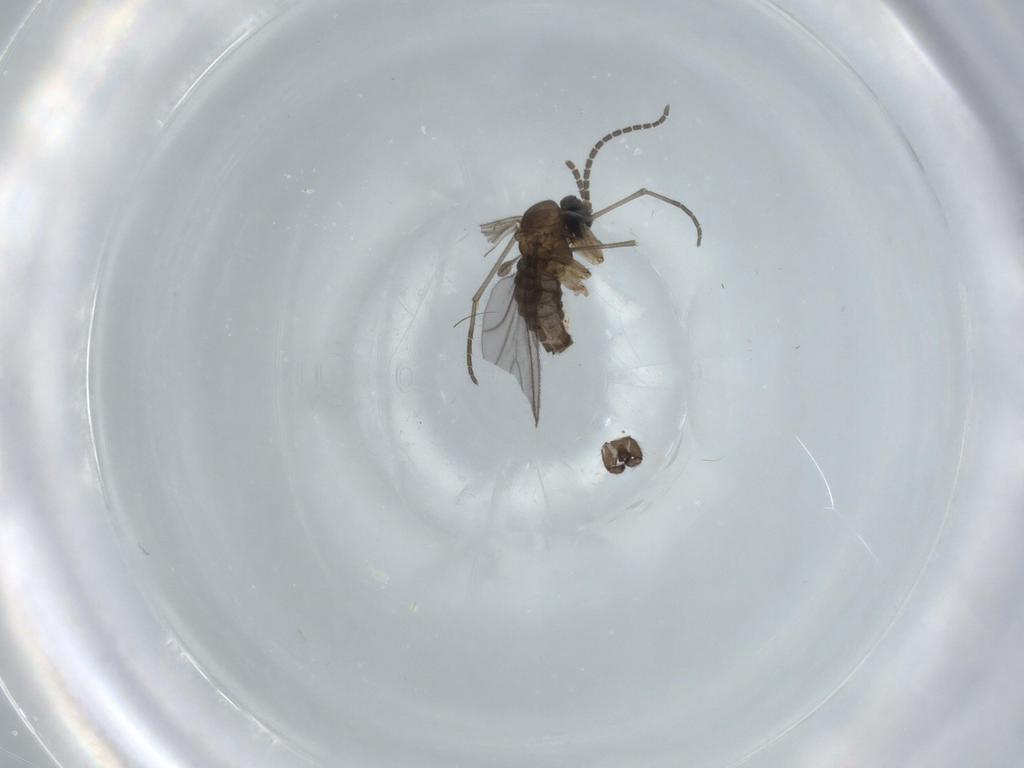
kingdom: Animalia
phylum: Arthropoda
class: Insecta
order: Diptera
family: Sciaridae
